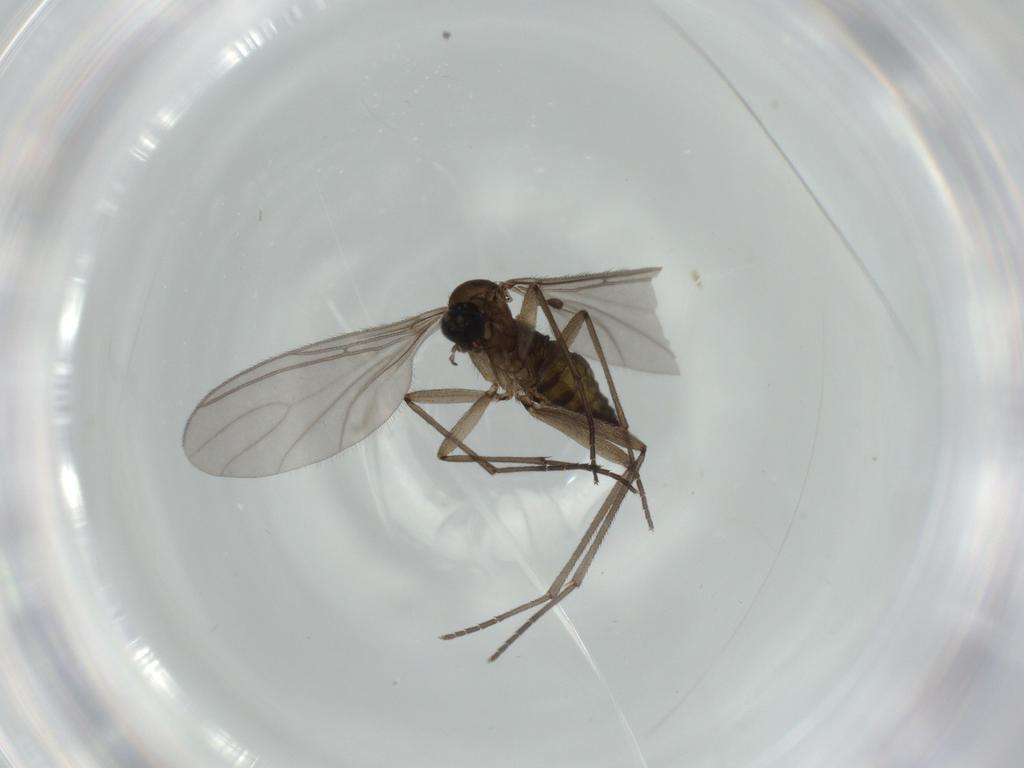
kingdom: Animalia
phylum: Arthropoda
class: Insecta
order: Diptera
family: Sciaridae
